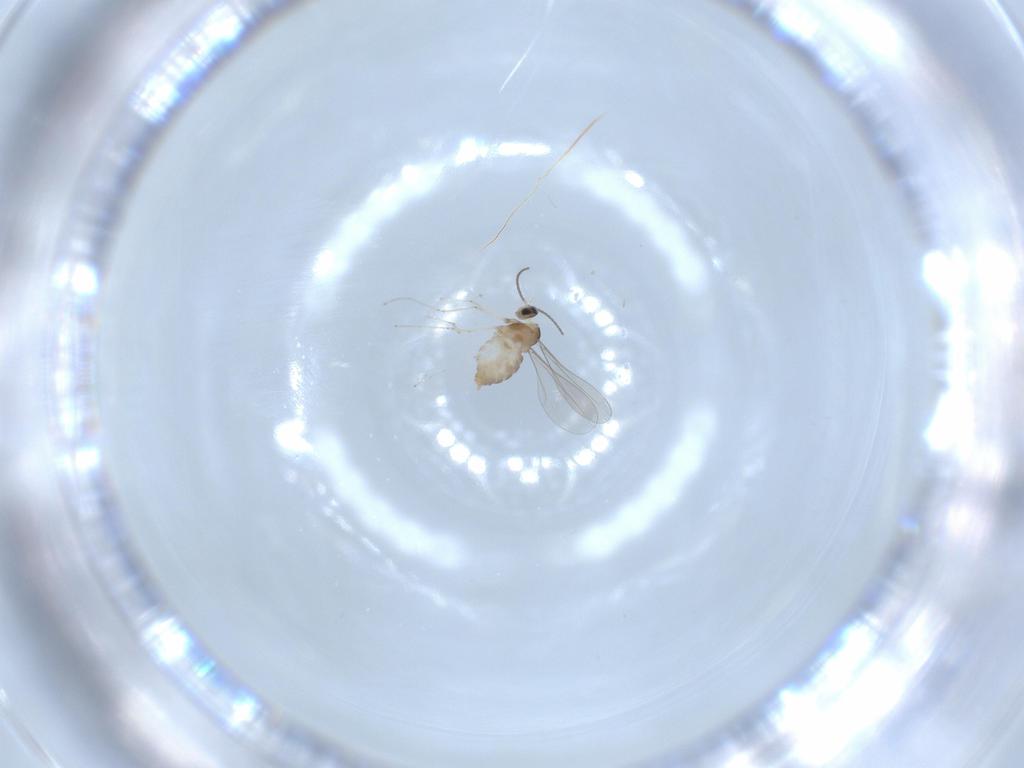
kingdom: Animalia
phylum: Arthropoda
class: Insecta
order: Diptera
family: Cecidomyiidae
